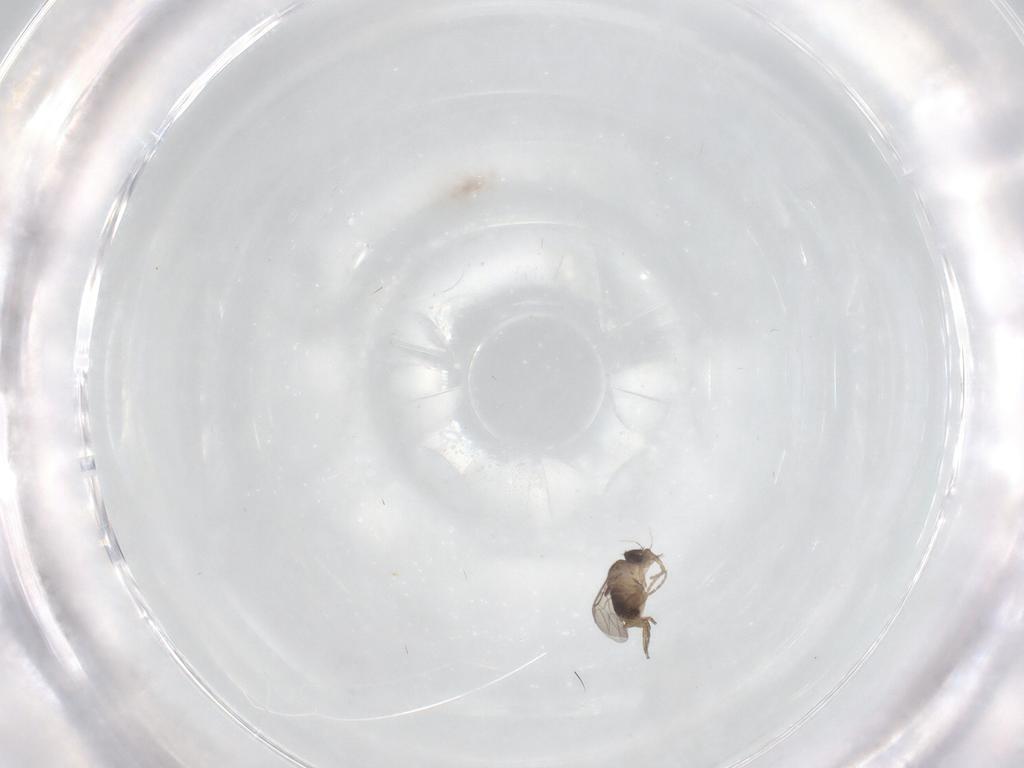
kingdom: Animalia
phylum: Arthropoda
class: Insecta
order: Diptera
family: Phoridae
